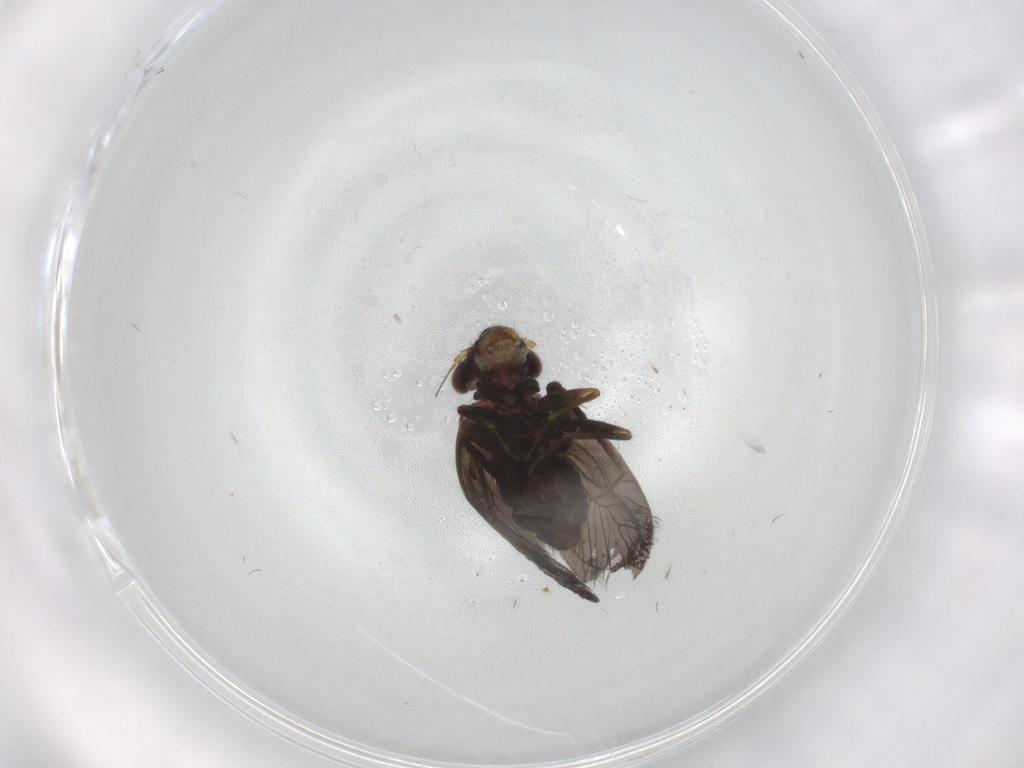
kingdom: Animalia
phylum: Arthropoda
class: Insecta
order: Psocodea
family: Lepidopsocidae
